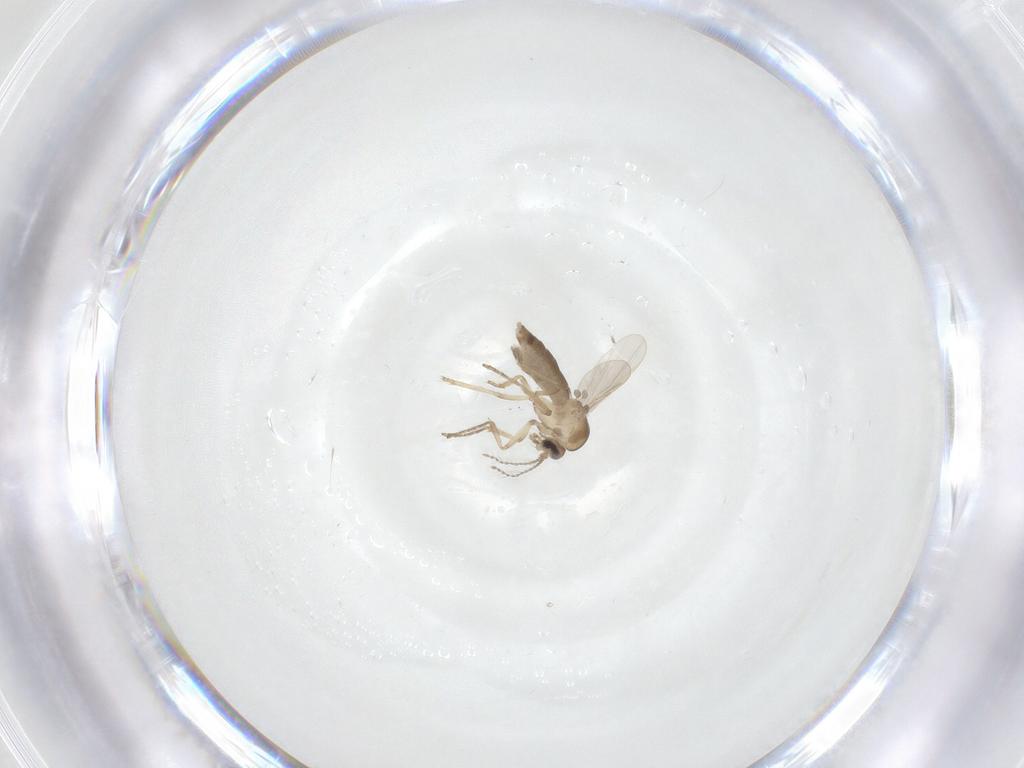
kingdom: Animalia
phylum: Arthropoda
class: Insecta
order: Diptera
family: Ceratopogonidae
